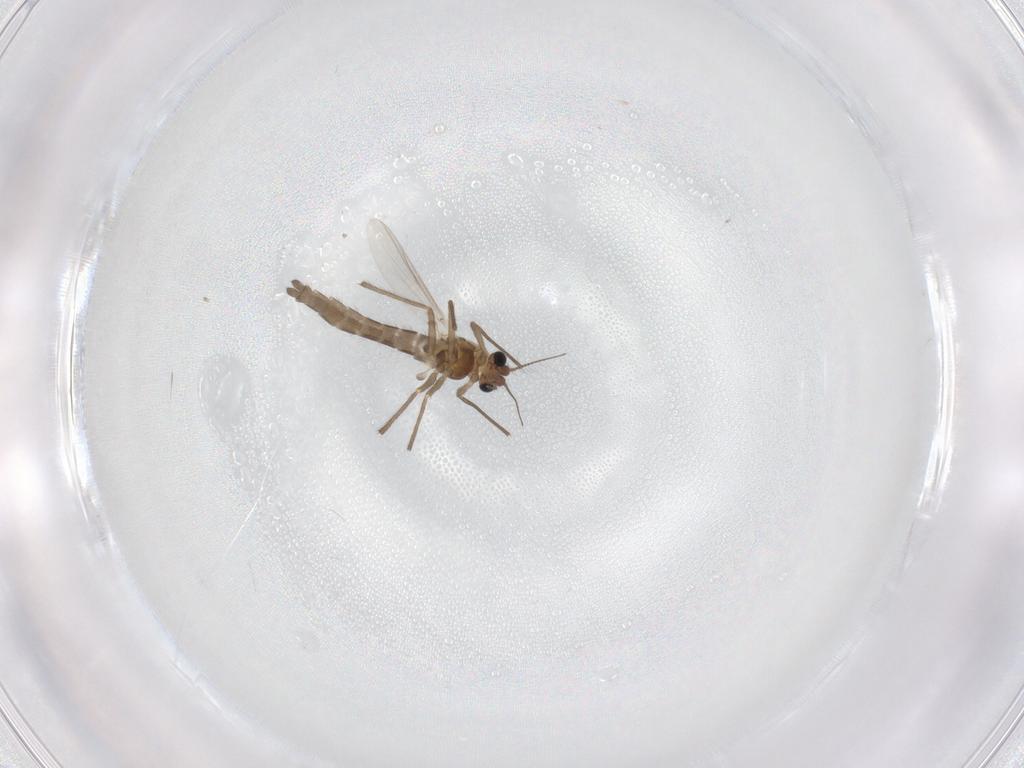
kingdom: Animalia
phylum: Arthropoda
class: Insecta
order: Diptera
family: Chironomidae
